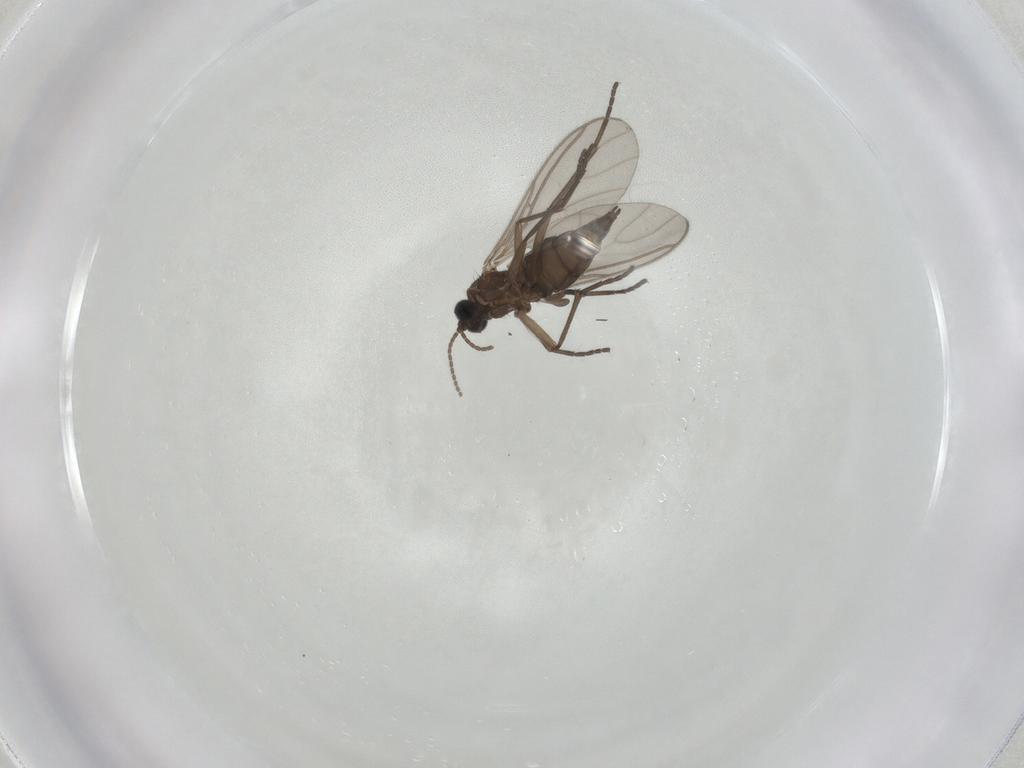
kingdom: Animalia
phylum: Arthropoda
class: Insecta
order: Diptera
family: Sciaridae
